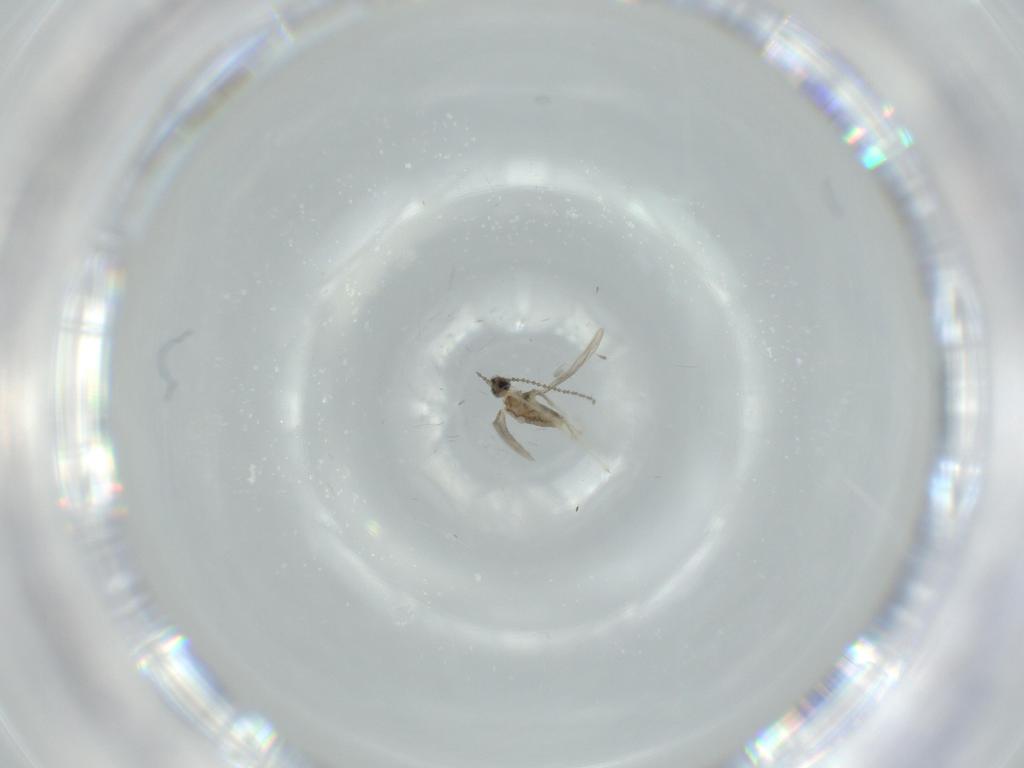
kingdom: Animalia
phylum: Arthropoda
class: Insecta
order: Diptera
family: Cecidomyiidae
